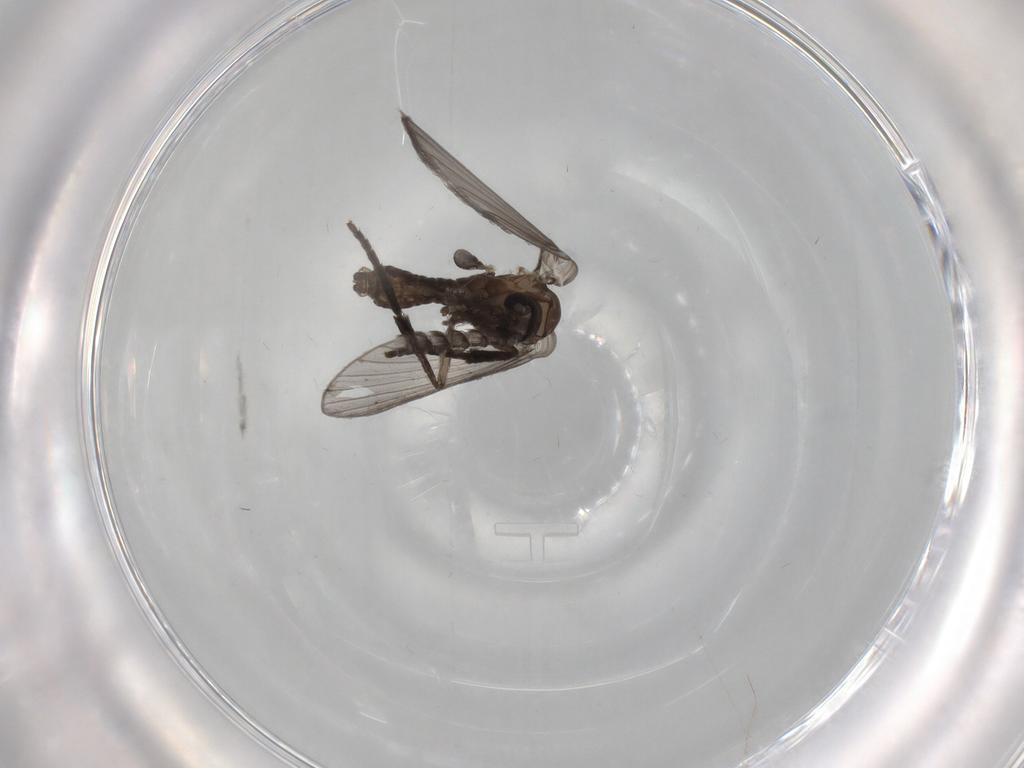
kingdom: Animalia
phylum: Arthropoda
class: Insecta
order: Diptera
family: Psychodidae
